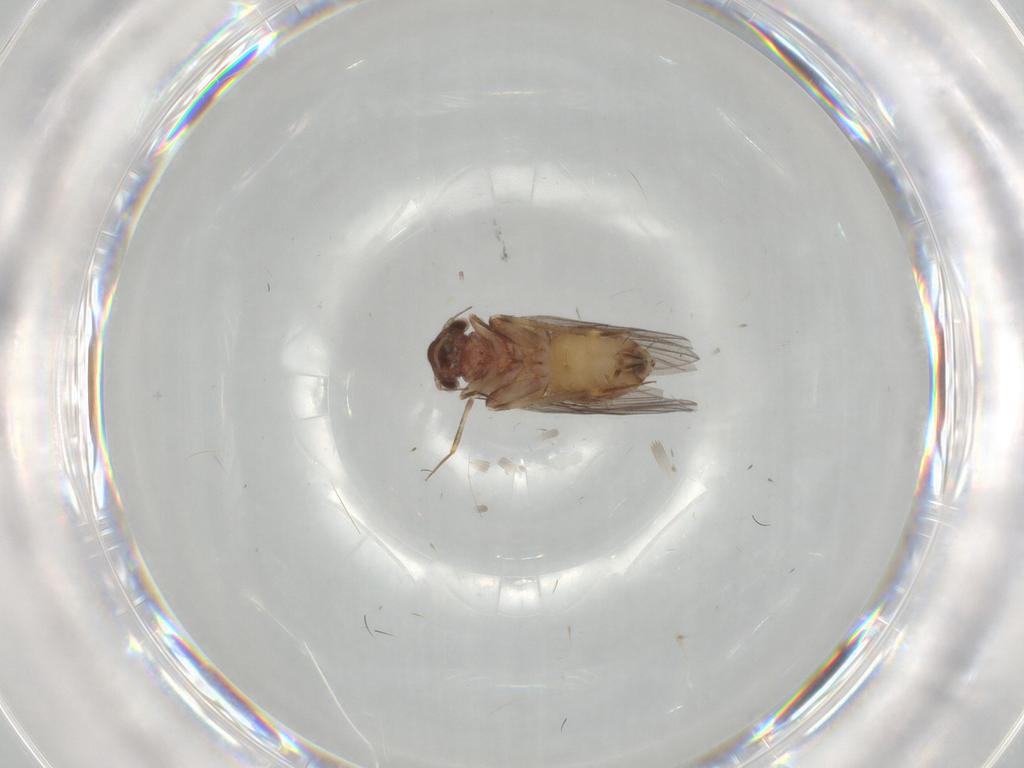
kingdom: Animalia
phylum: Arthropoda
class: Insecta
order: Psocodea
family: Lepidopsocidae
